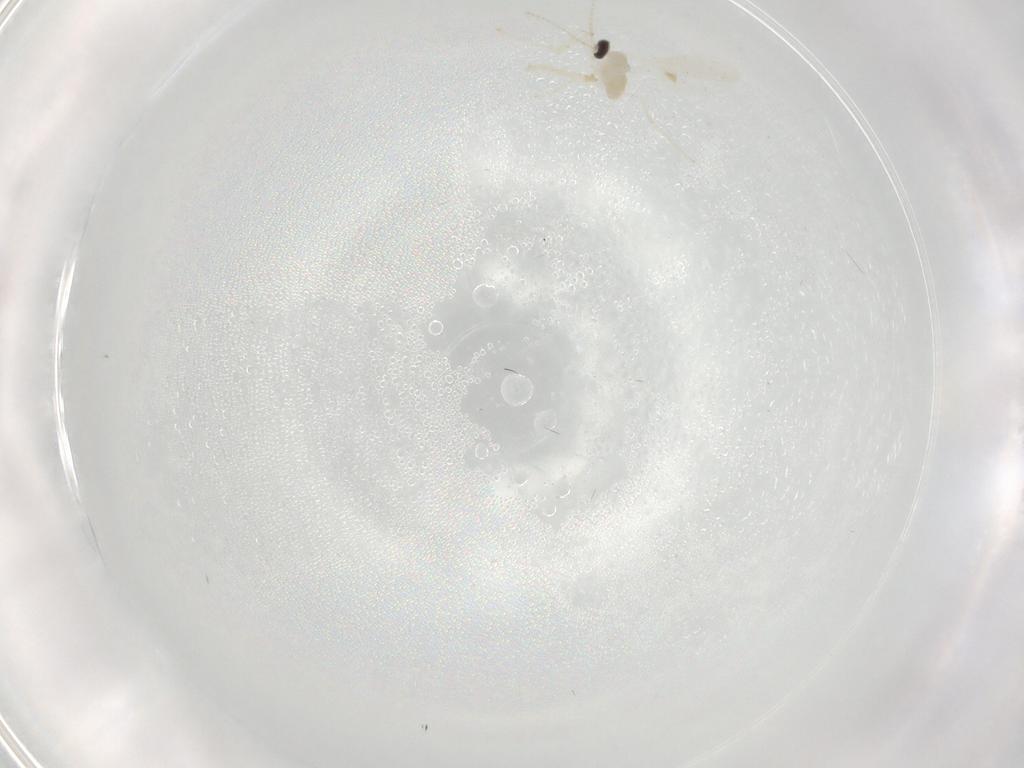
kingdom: Animalia
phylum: Arthropoda
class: Insecta
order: Diptera
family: Cecidomyiidae
